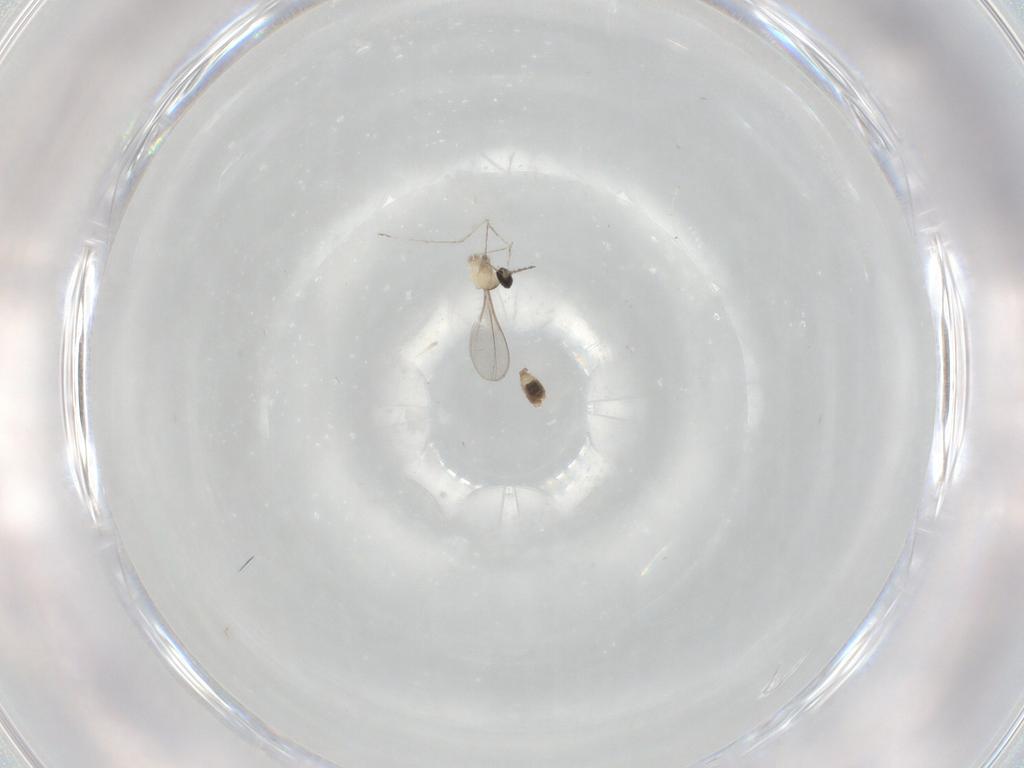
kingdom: Animalia
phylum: Arthropoda
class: Insecta
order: Diptera
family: Cecidomyiidae
